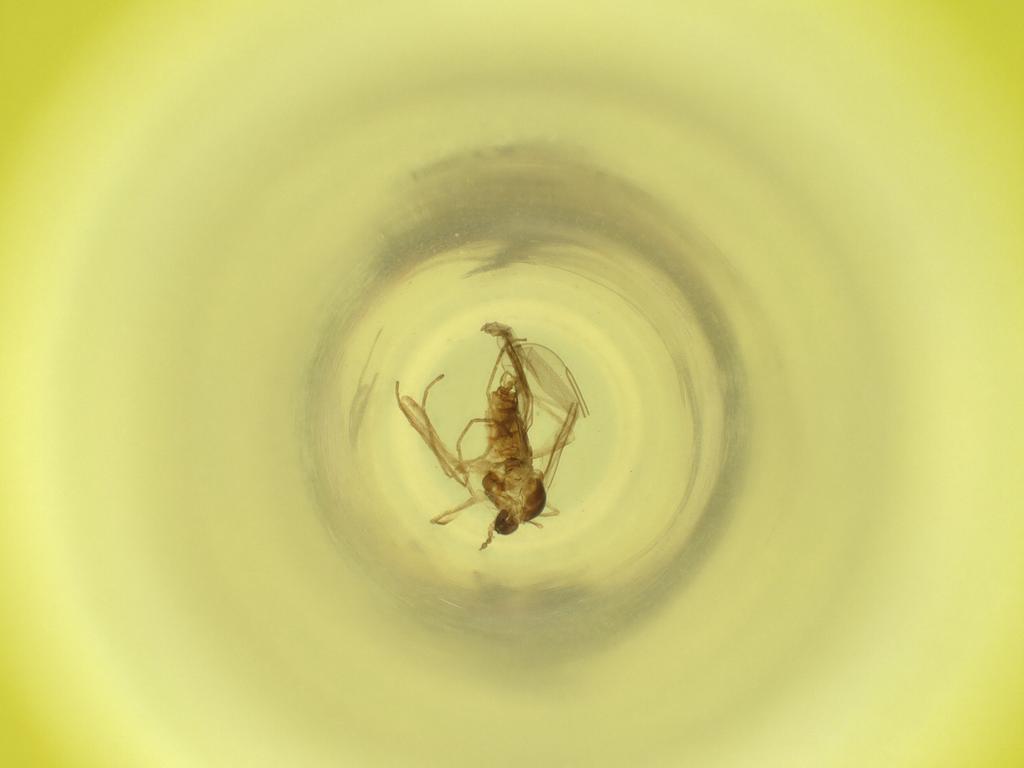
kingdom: Animalia
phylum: Arthropoda
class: Insecta
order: Diptera
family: Cecidomyiidae
